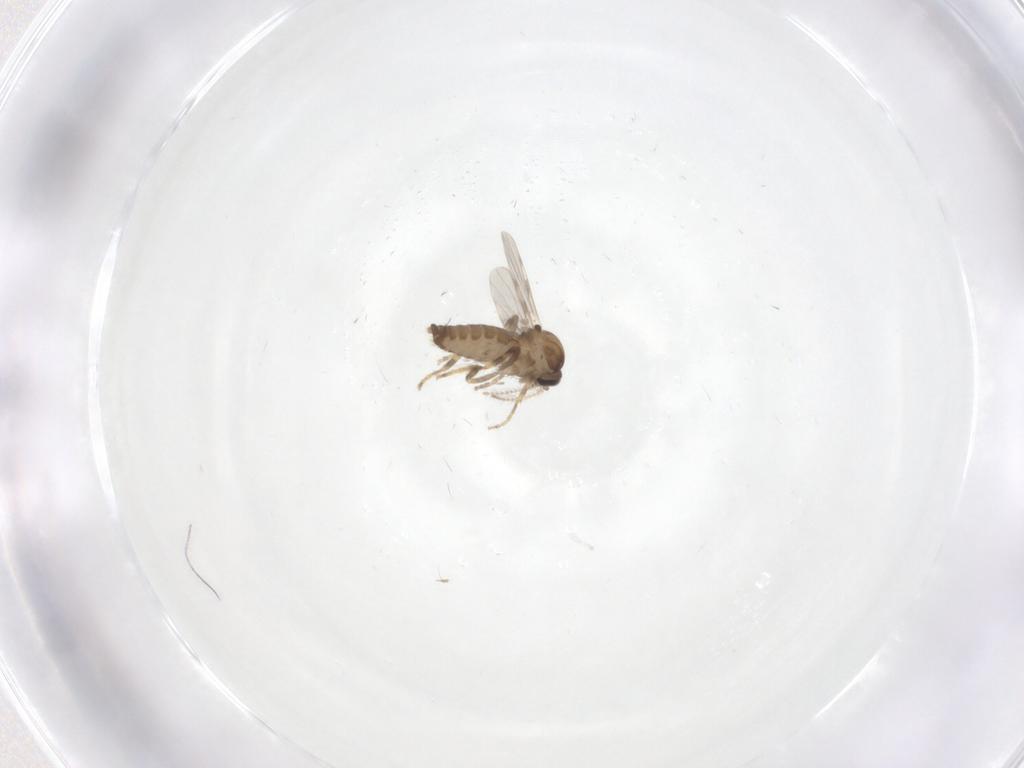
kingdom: Animalia
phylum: Arthropoda
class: Insecta
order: Diptera
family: Ceratopogonidae
